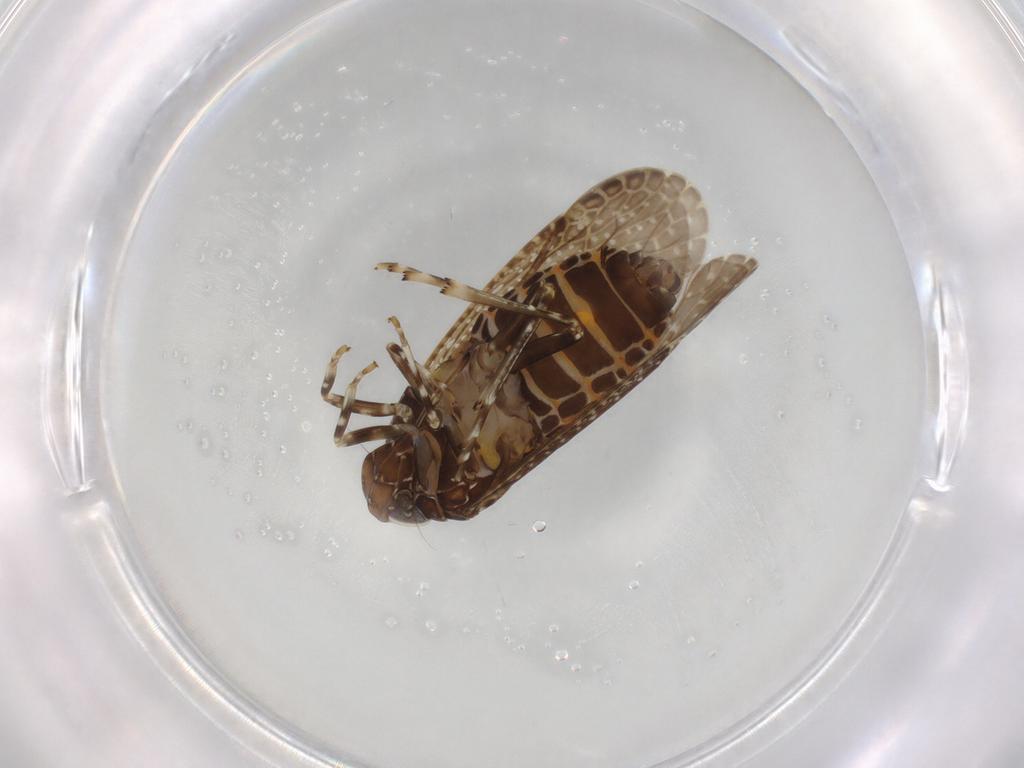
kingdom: Animalia
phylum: Arthropoda
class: Insecta
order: Hemiptera
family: Achilidae
